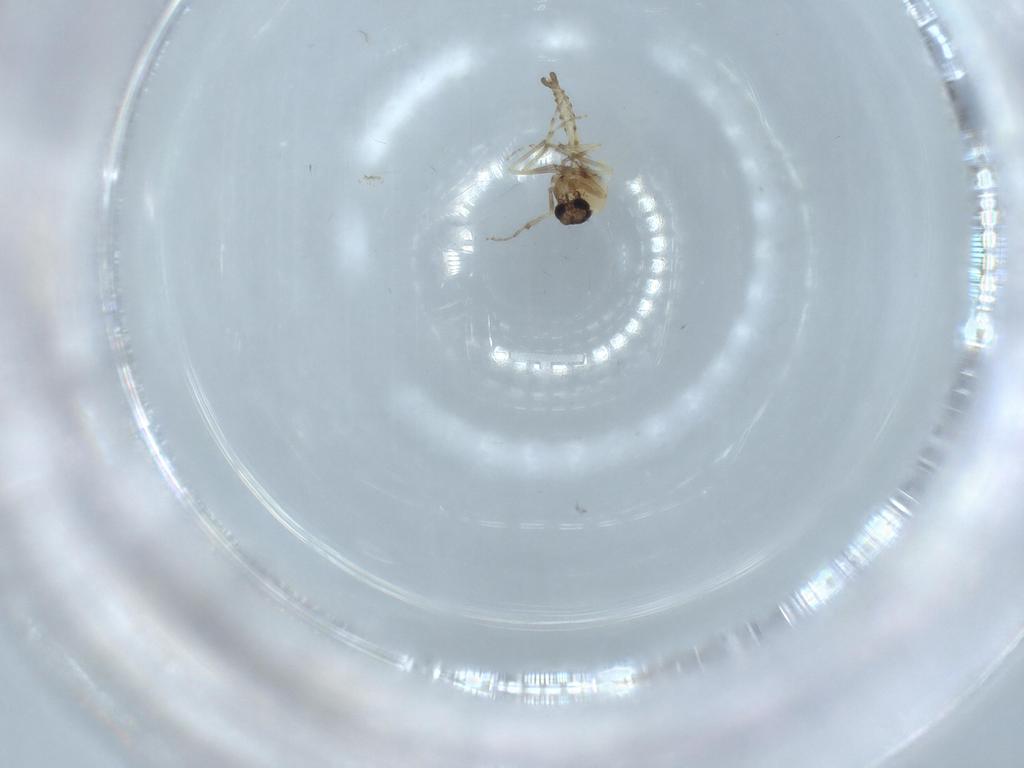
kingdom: Animalia
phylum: Arthropoda
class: Insecta
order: Diptera
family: Ceratopogonidae
